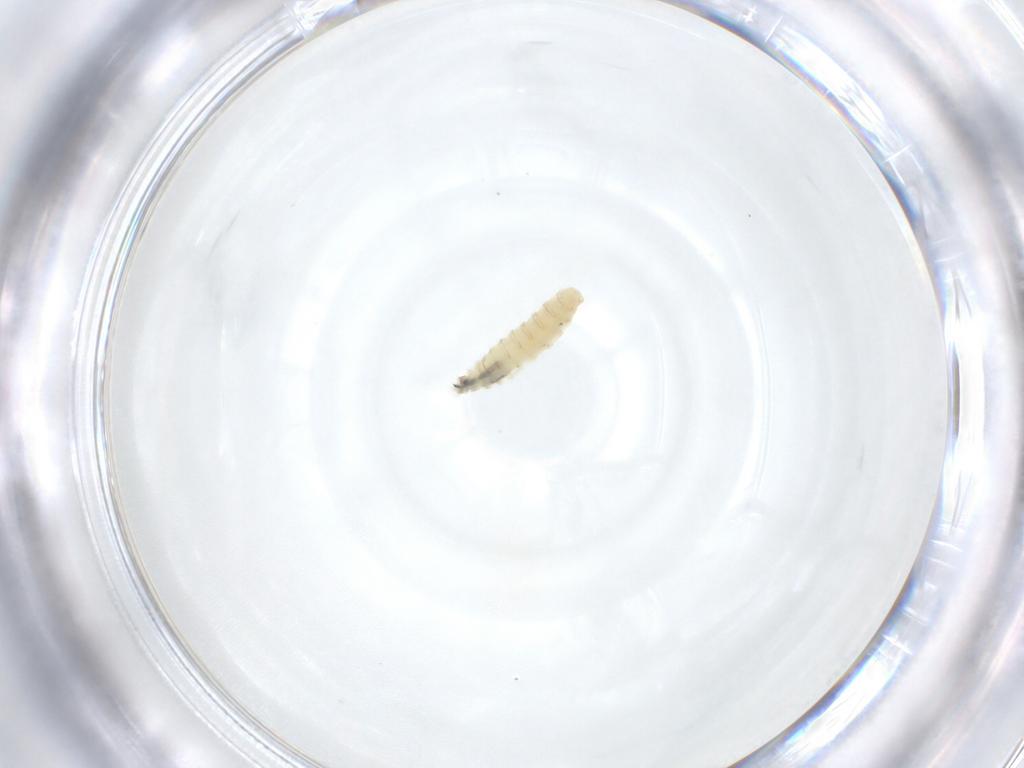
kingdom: Animalia
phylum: Arthropoda
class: Insecta
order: Diptera
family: Sarcophagidae
